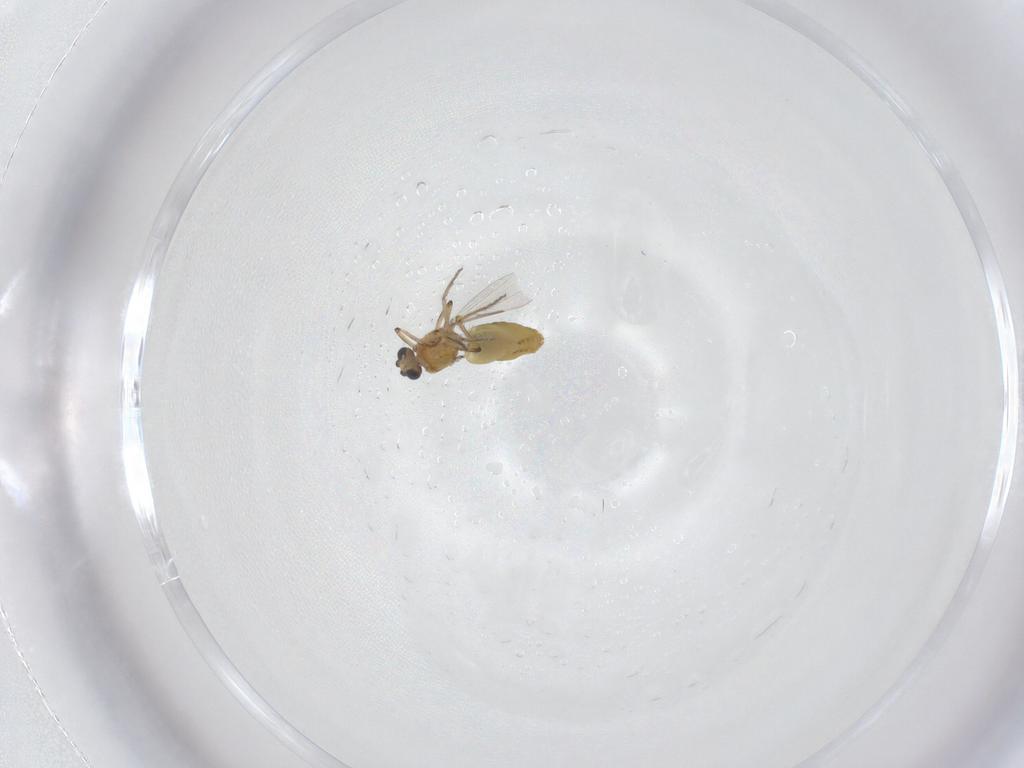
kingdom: Animalia
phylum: Arthropoda
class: Insecta
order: Diptera
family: Ceratopogonidae
